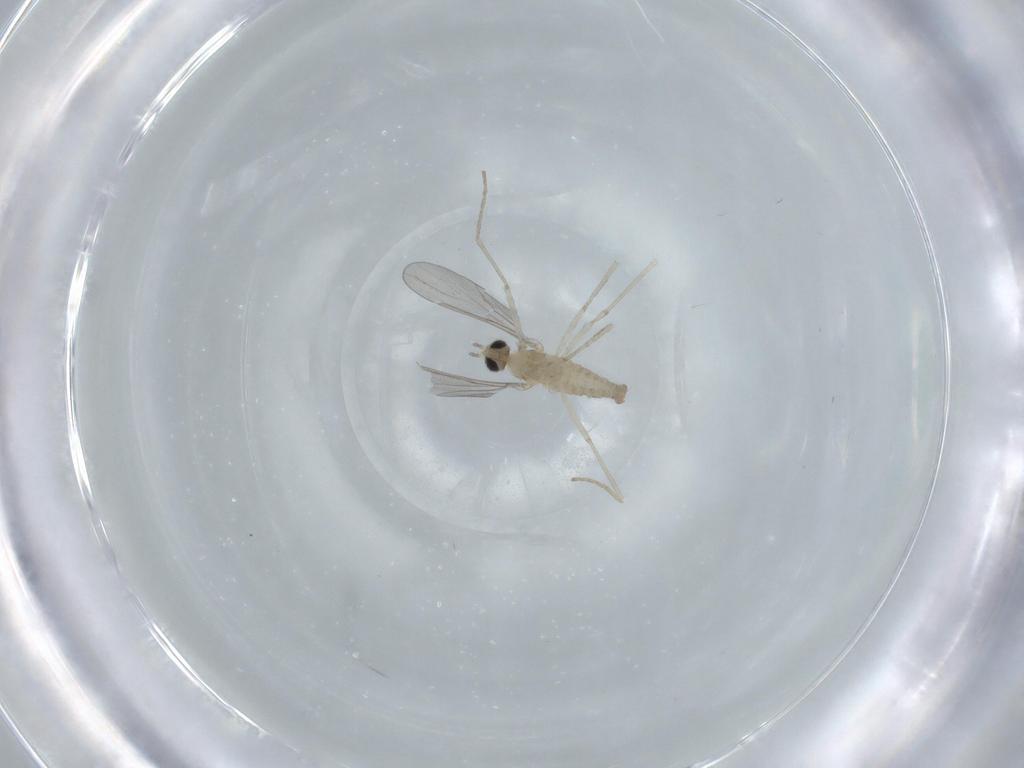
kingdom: Animalia
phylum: Arthropoda
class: Insecta
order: Diptera
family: Cecidomyiidae
